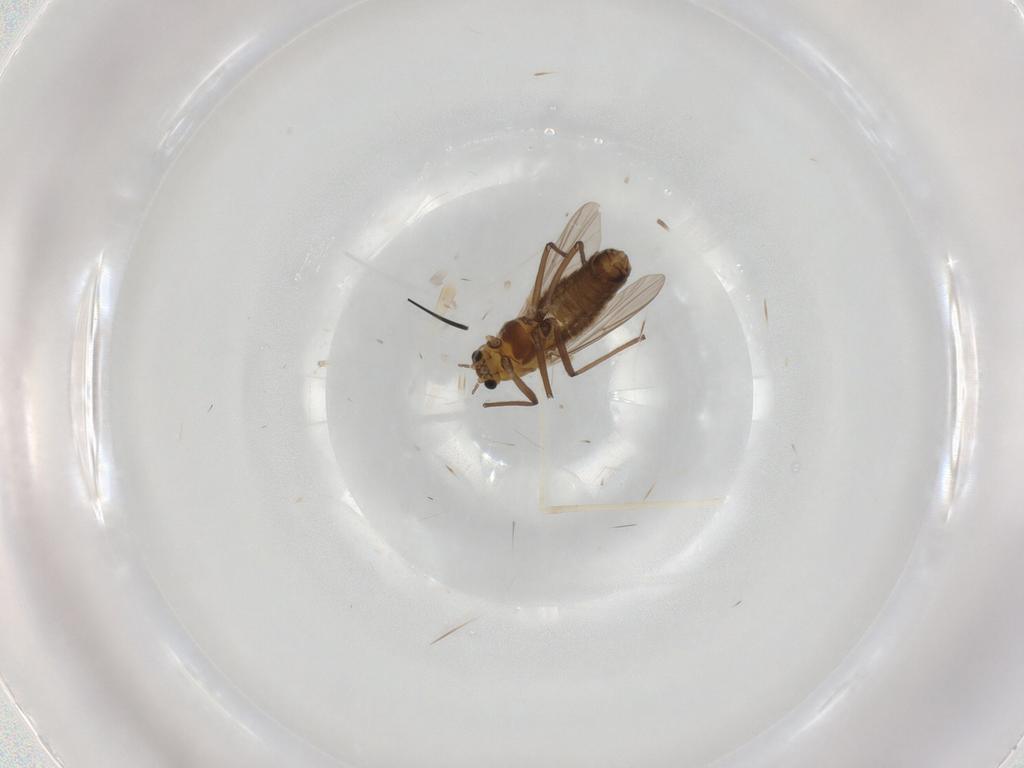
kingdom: Animalia
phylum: Arthropoda
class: Insecta
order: Diptera
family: Chironomidae
